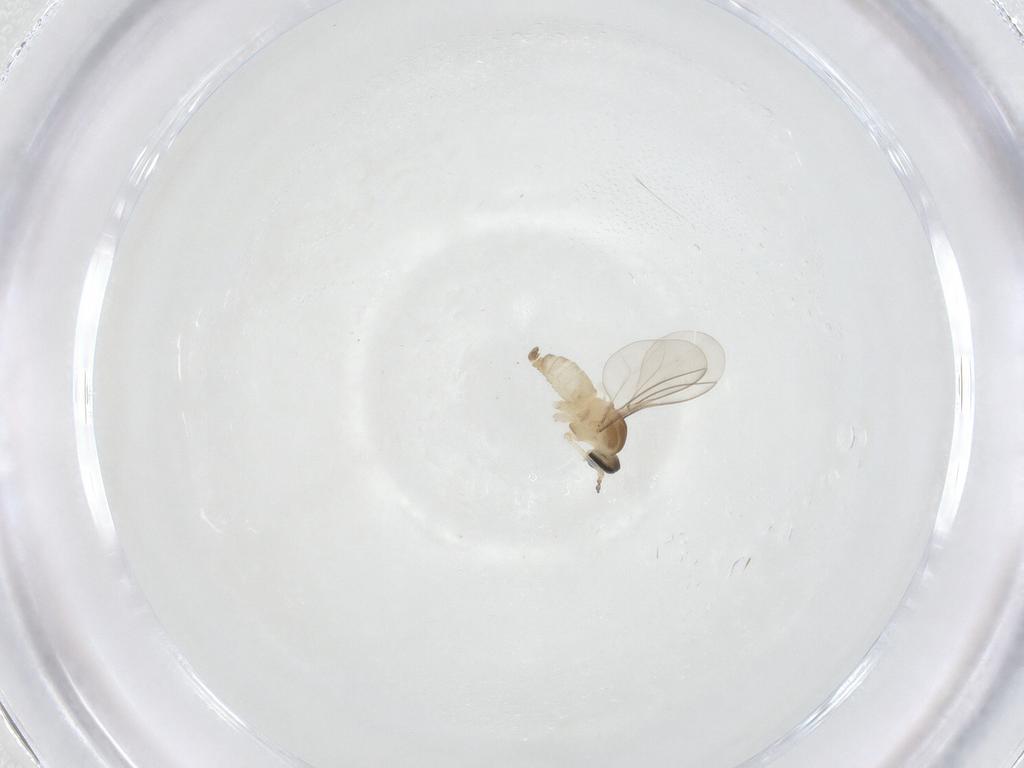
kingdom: Animalia
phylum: Arthropoda
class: Insecta
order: Diptera
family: Cecidomyiidae
